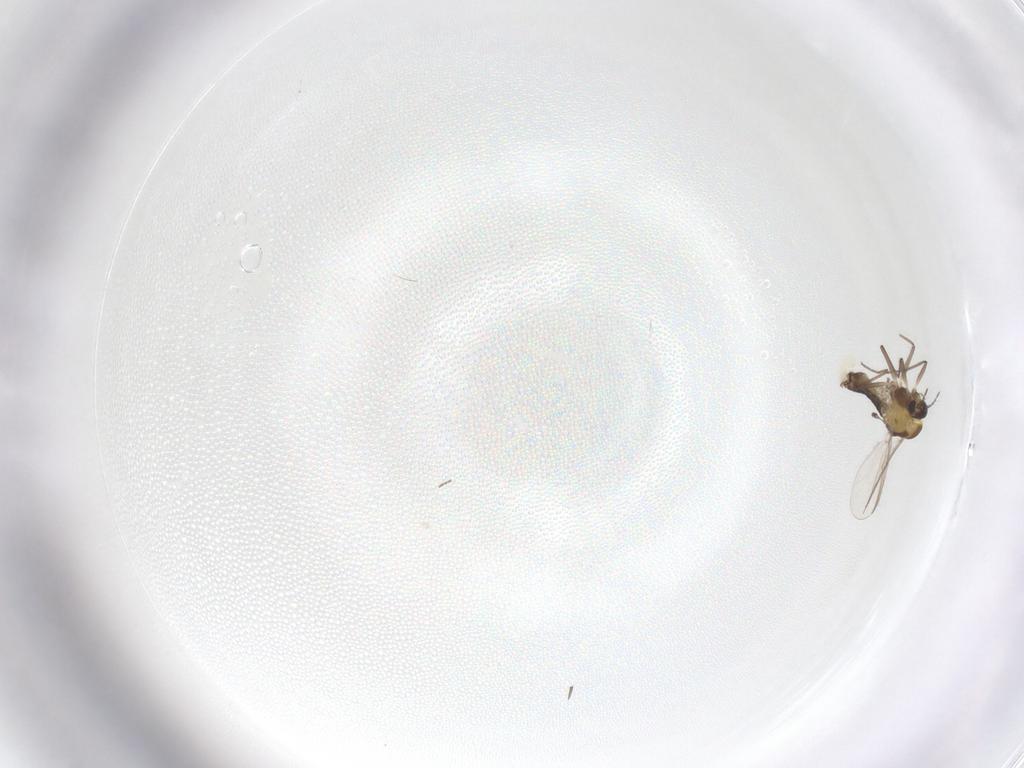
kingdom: Animalia
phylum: Arthropoda
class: Insecta
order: Diptera
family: Chironomidae
